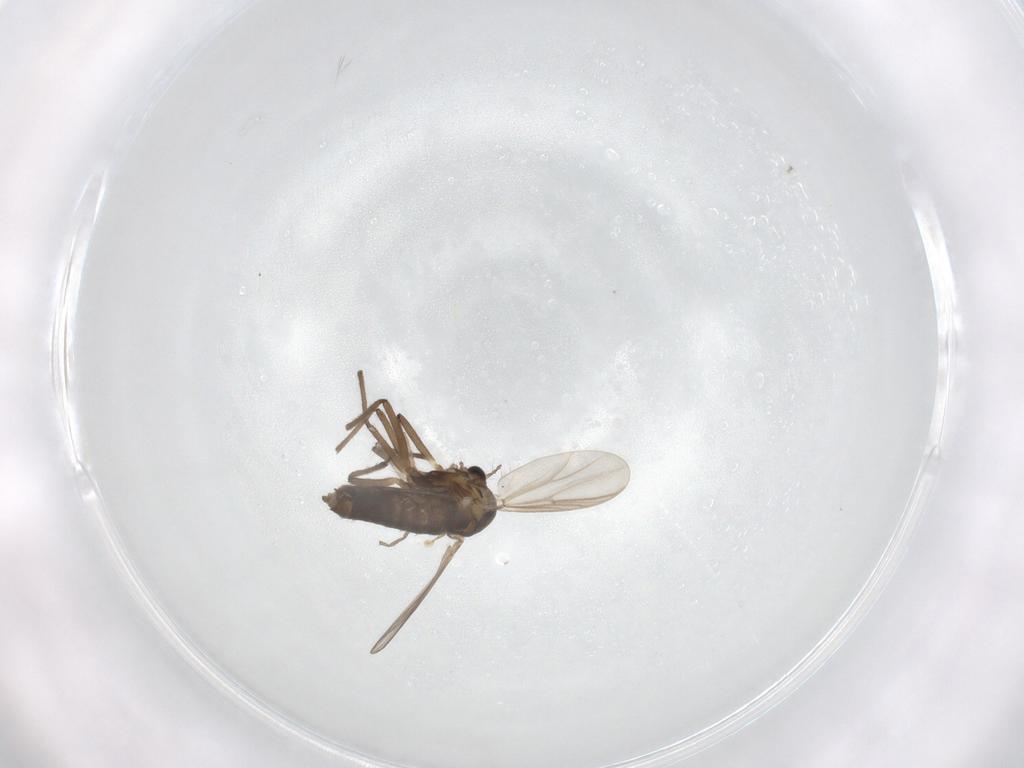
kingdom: Animalia
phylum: Arthropoda
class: Insecta
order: Diptera
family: Chironomidae
